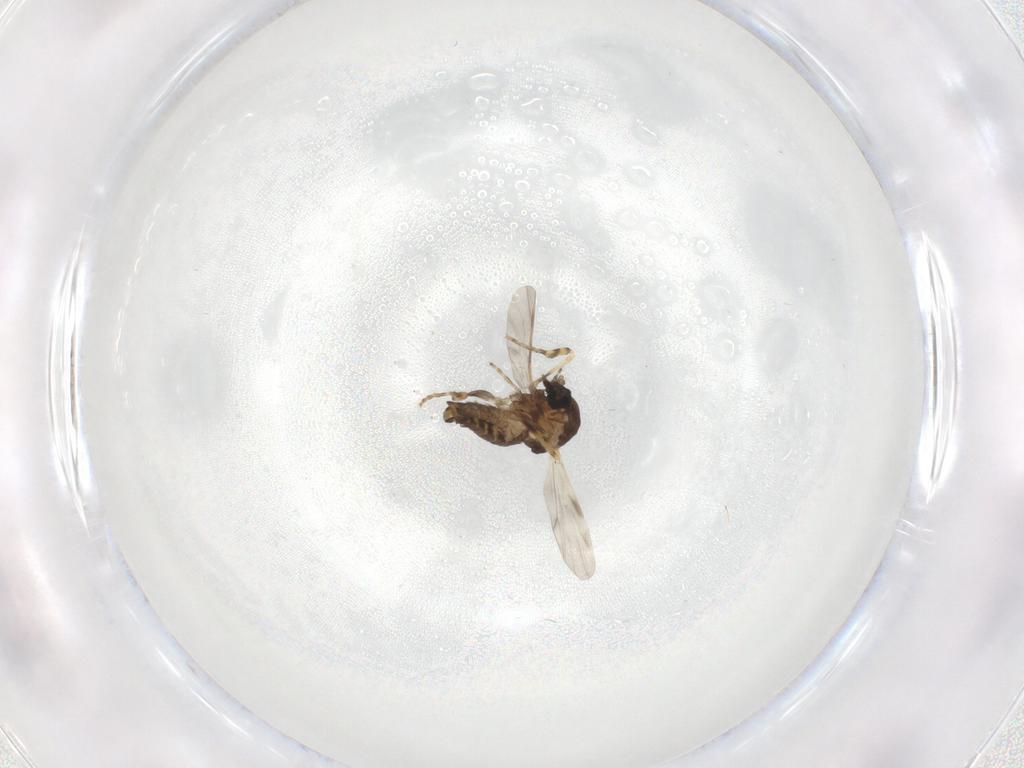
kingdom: Animalia
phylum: Arthropoda
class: Insecta
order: Diptera
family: Ceratopogonidae
